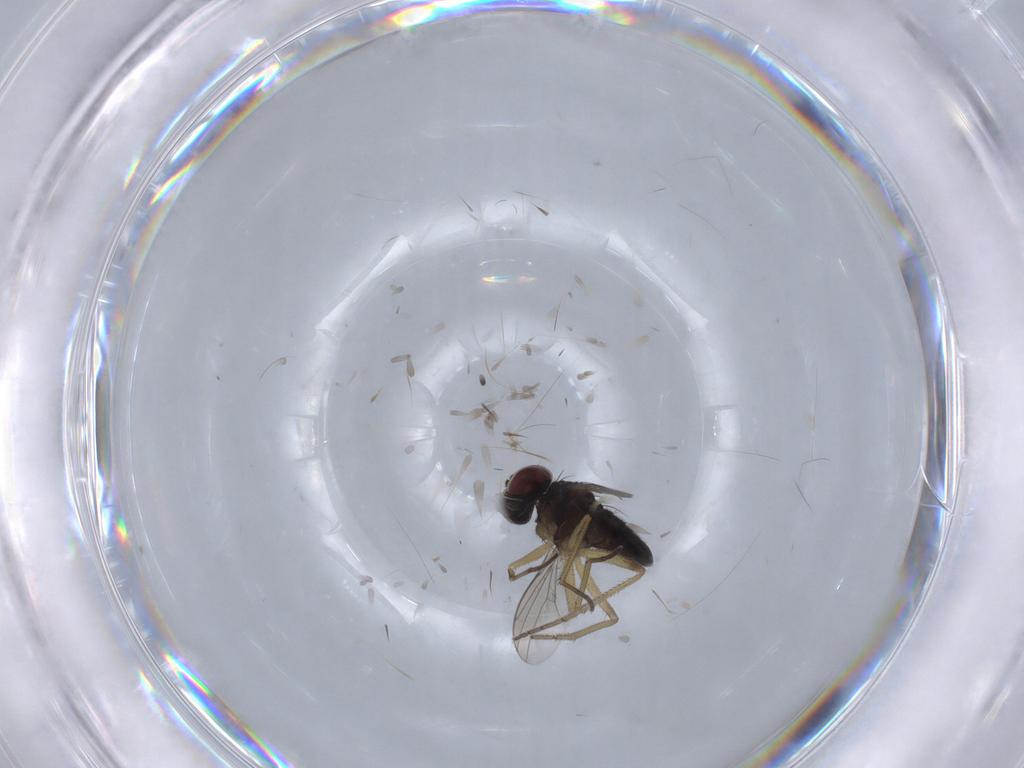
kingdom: Animalia
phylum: Arthropoda
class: Insecta
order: Diptera
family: Dolichopodidae
